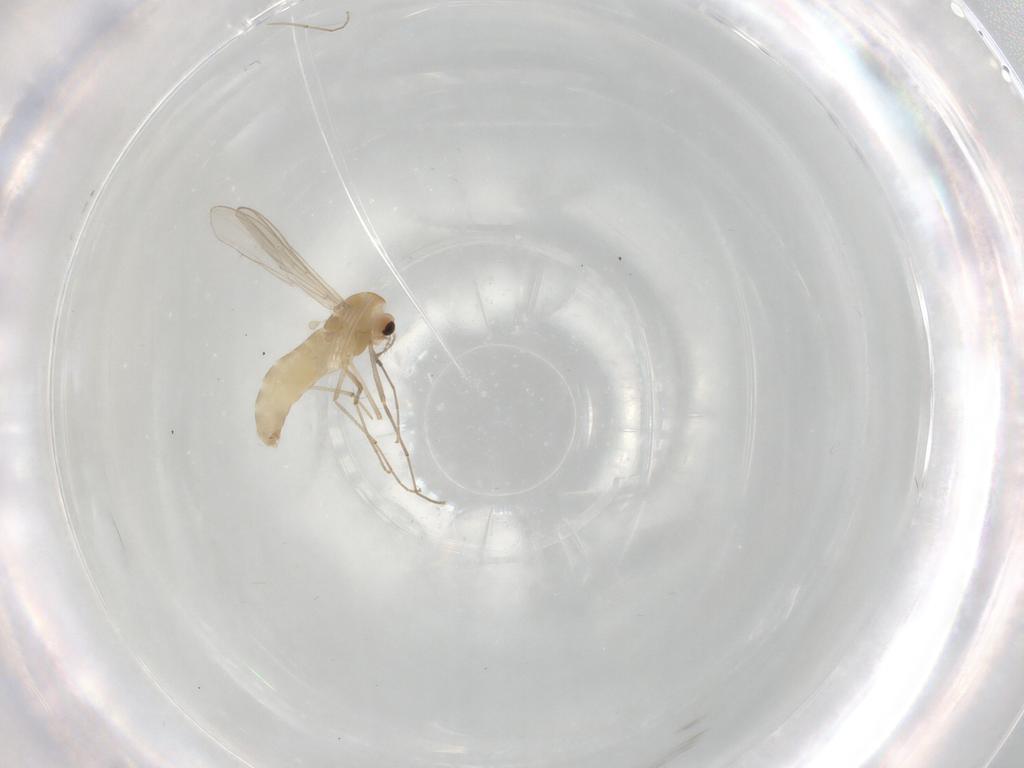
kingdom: Animalia
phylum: Arthropoda
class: Insecta
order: Diptera
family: Chironomidae
